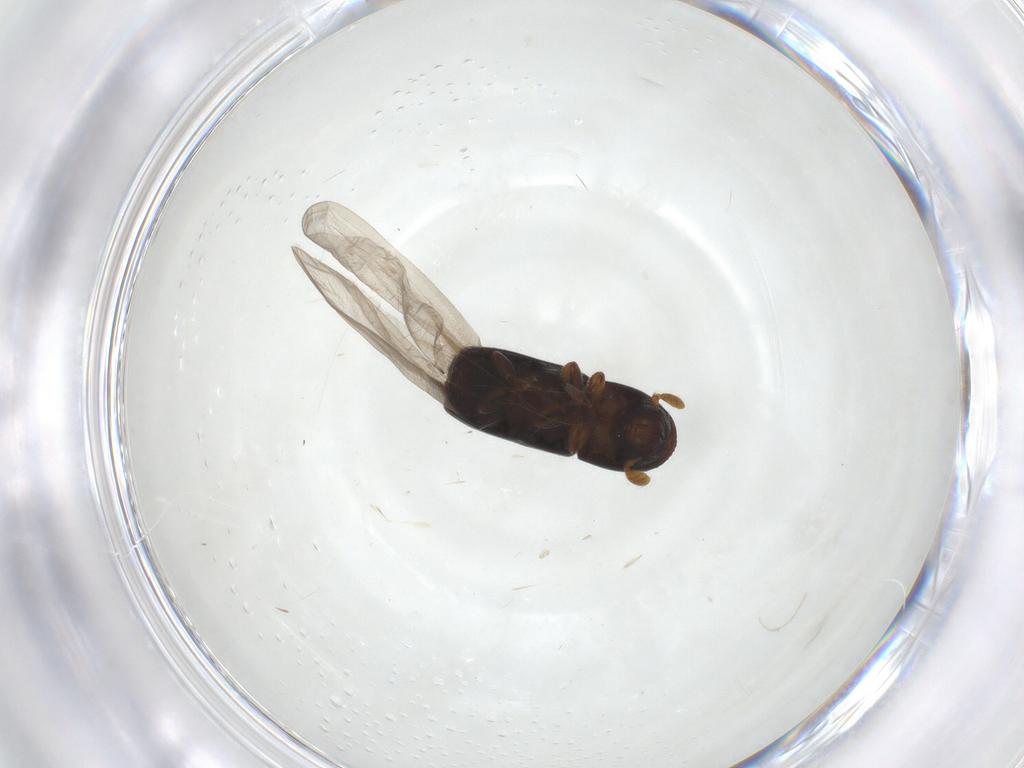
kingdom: Animalia
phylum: Arthropoda
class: Insecta
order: Coleoptera
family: Curculionidae
